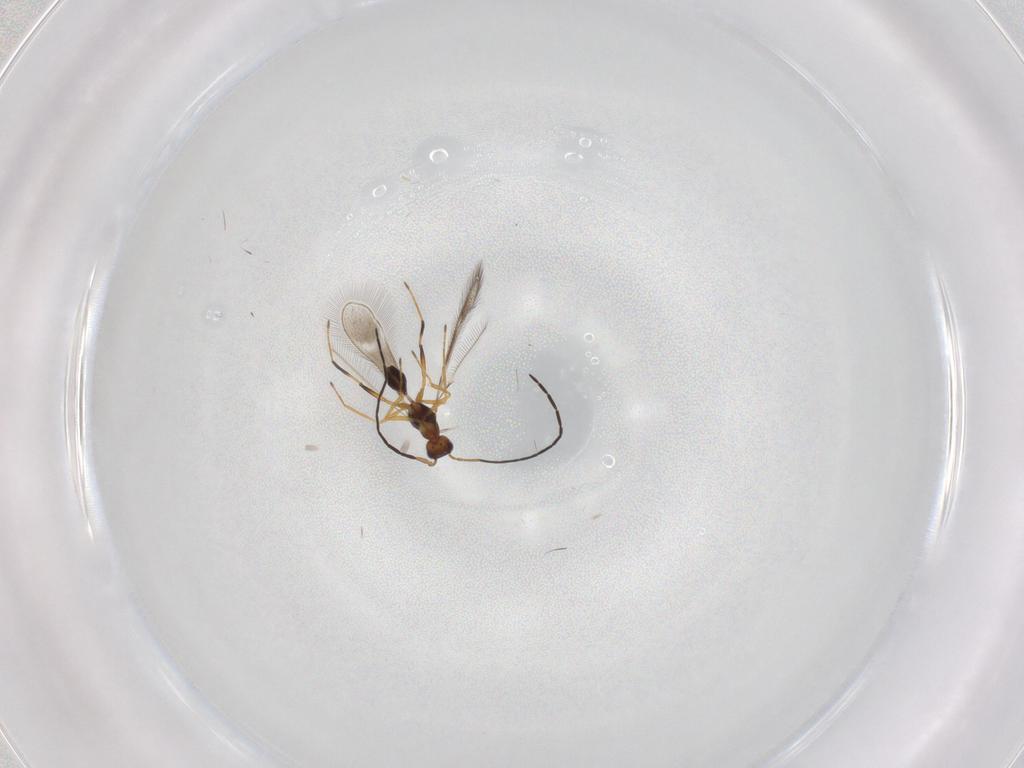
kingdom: Animalia
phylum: Arthropoda
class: Insecta
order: Hymenoptera
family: Mymaridae
